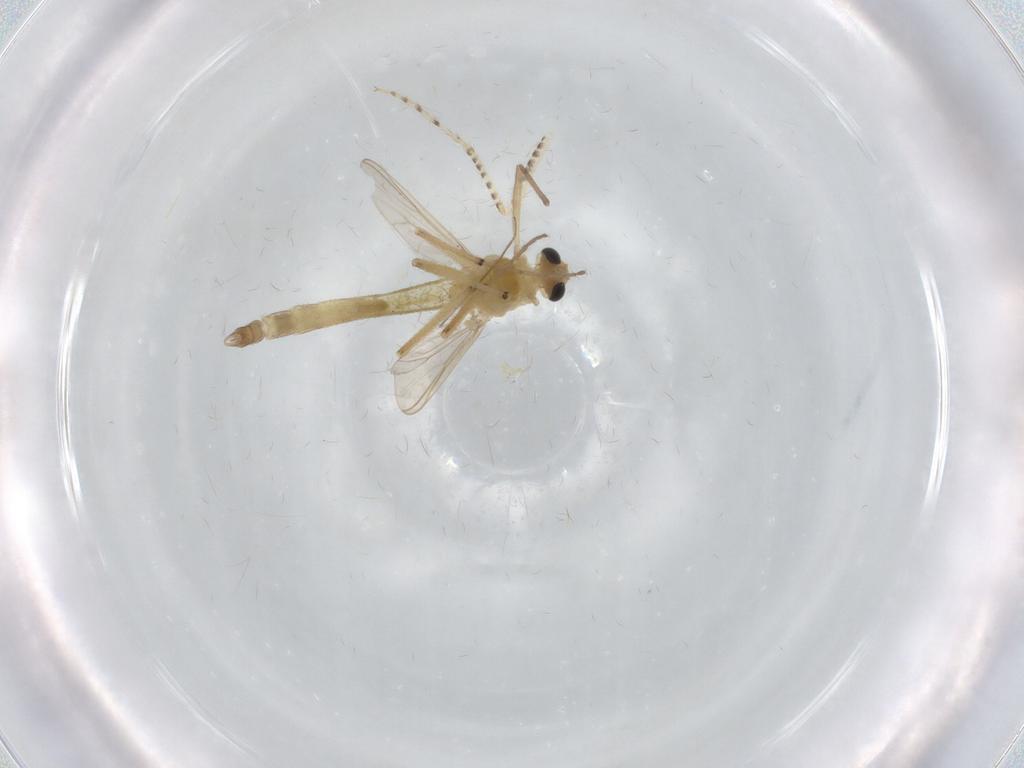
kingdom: Animalia
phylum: Arthropoda
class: Insecta
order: Diptera
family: Chironomidae
